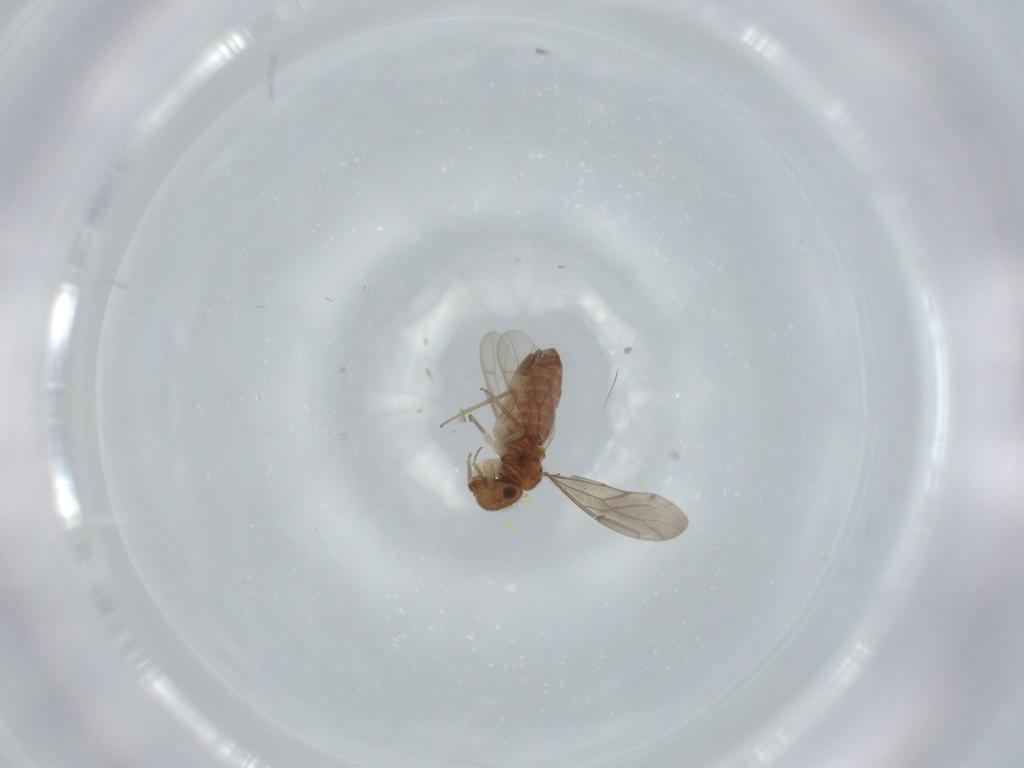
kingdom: Animalia
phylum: Arthropoda
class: Insecta
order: Psocodea
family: Ectopsocidae
